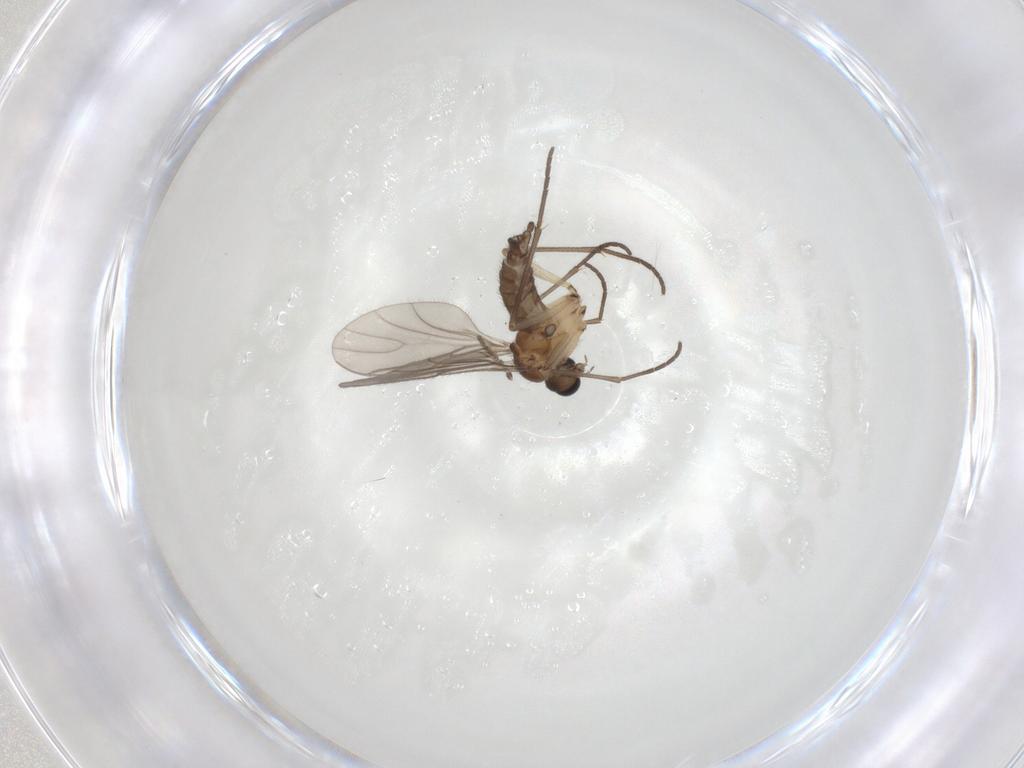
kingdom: Animalia
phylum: Arthropoda
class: Insecta
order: Diptera
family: Sciaridae
